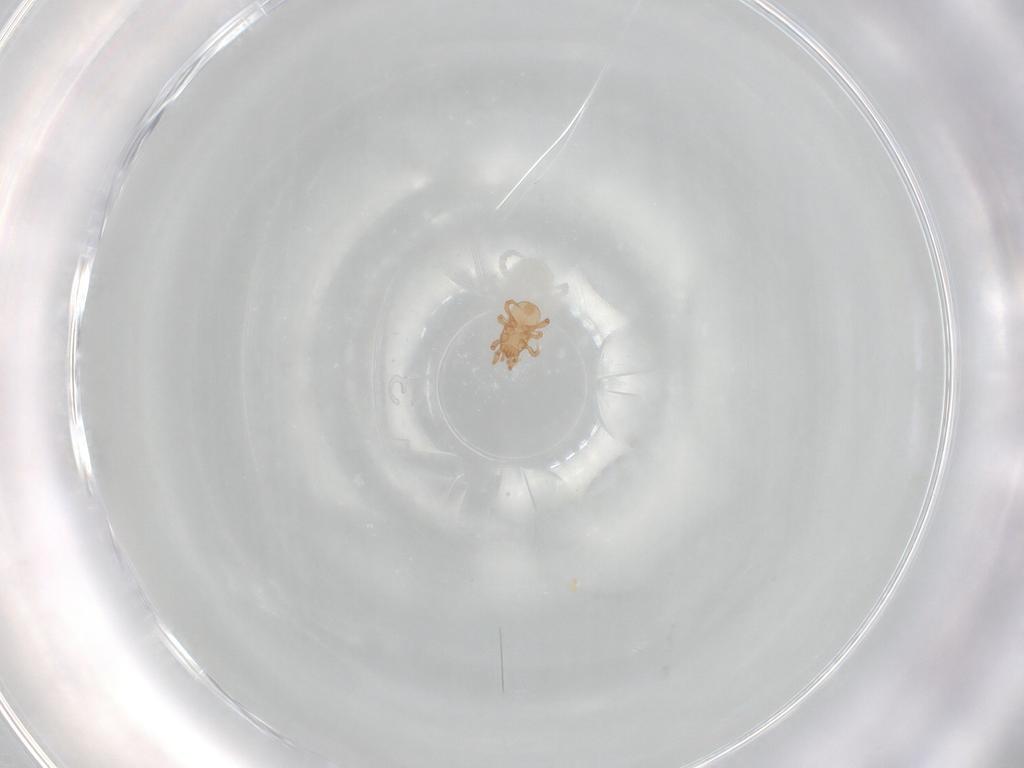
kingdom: Animalia
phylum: Arthropoda
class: Arachnida
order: Mesostigmata
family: Ascidae
